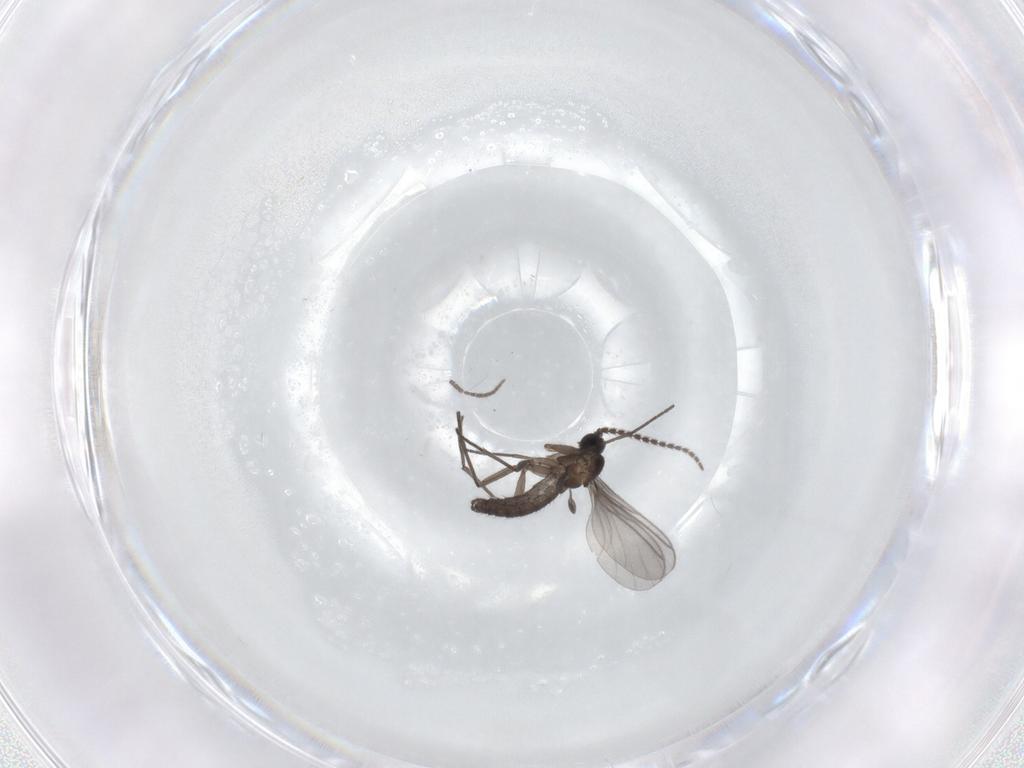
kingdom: Animalia
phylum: Arthropoda
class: Insecta
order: Diptera
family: Sciaridae
